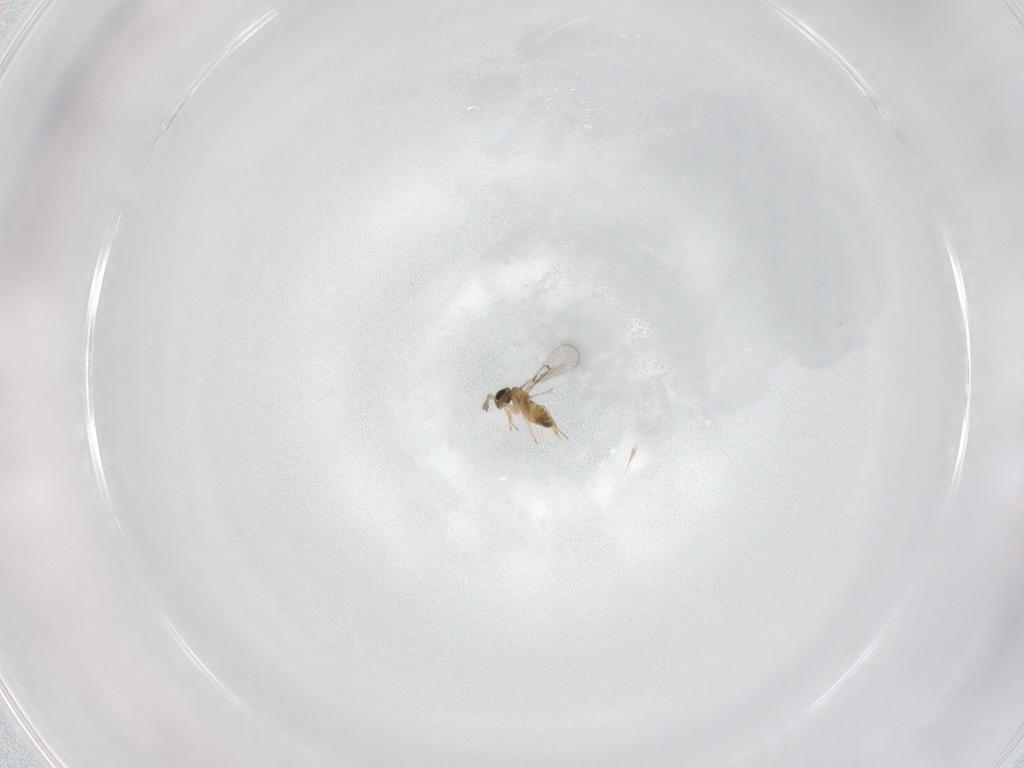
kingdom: Animalia
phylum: Arthropoda
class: Insecta
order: Hymenoptera
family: Trichogrammatidae
